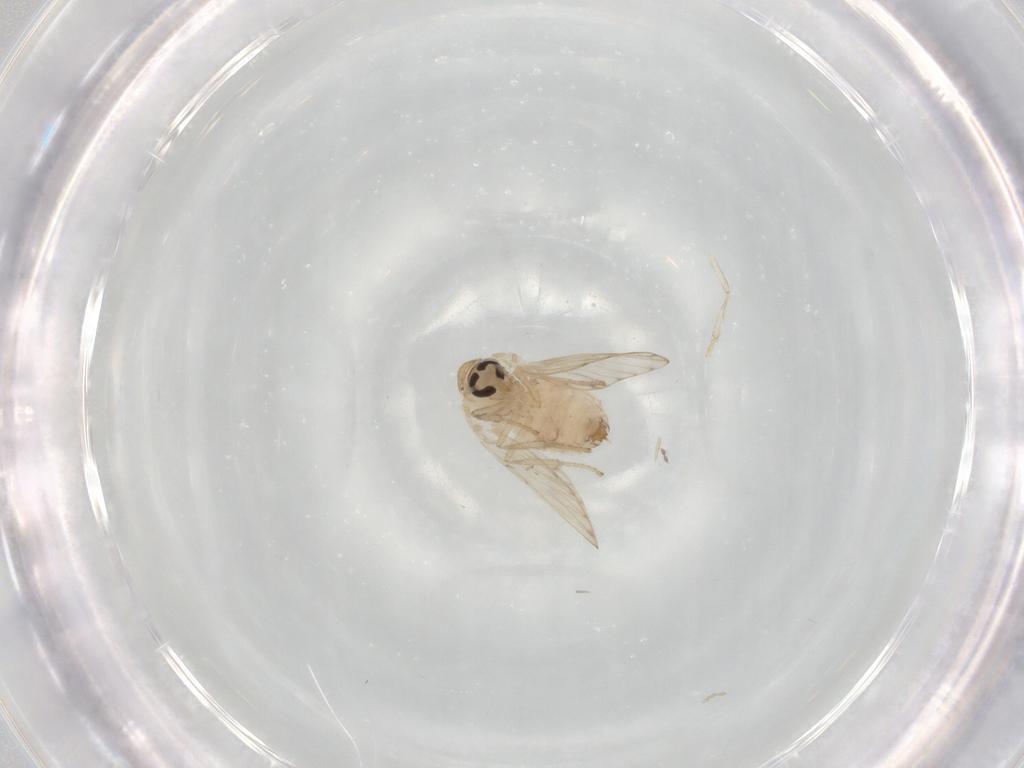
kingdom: Animalia
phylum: Arthropoda
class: Insecta
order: Diptera
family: Psychodidae
